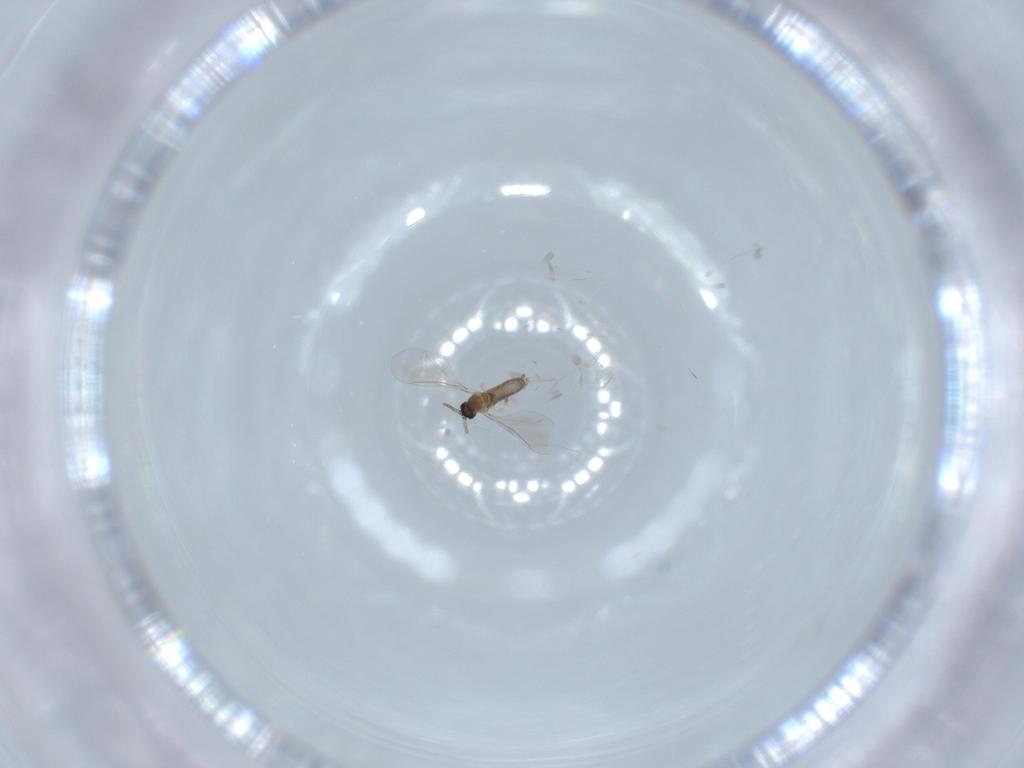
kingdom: Animalia
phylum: Arthropoda
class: Insecta
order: Diptera
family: Cecidomyiidae
